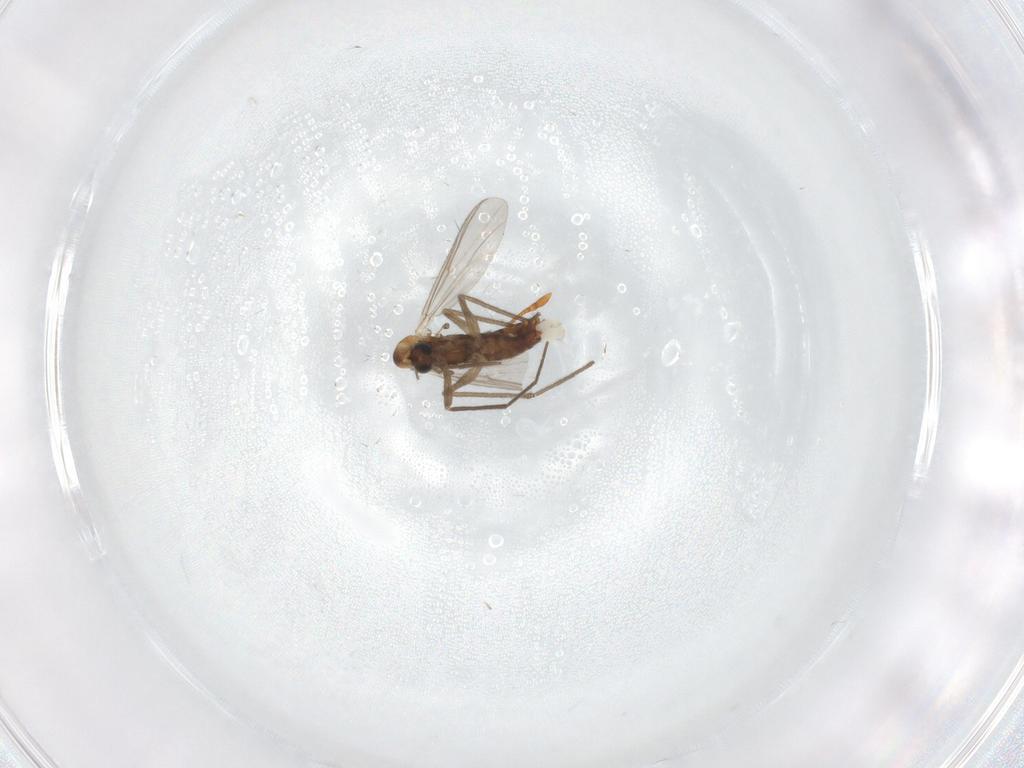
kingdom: Animalia
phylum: Arthropoda
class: Insecta
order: Diptera
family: Chironomidae
